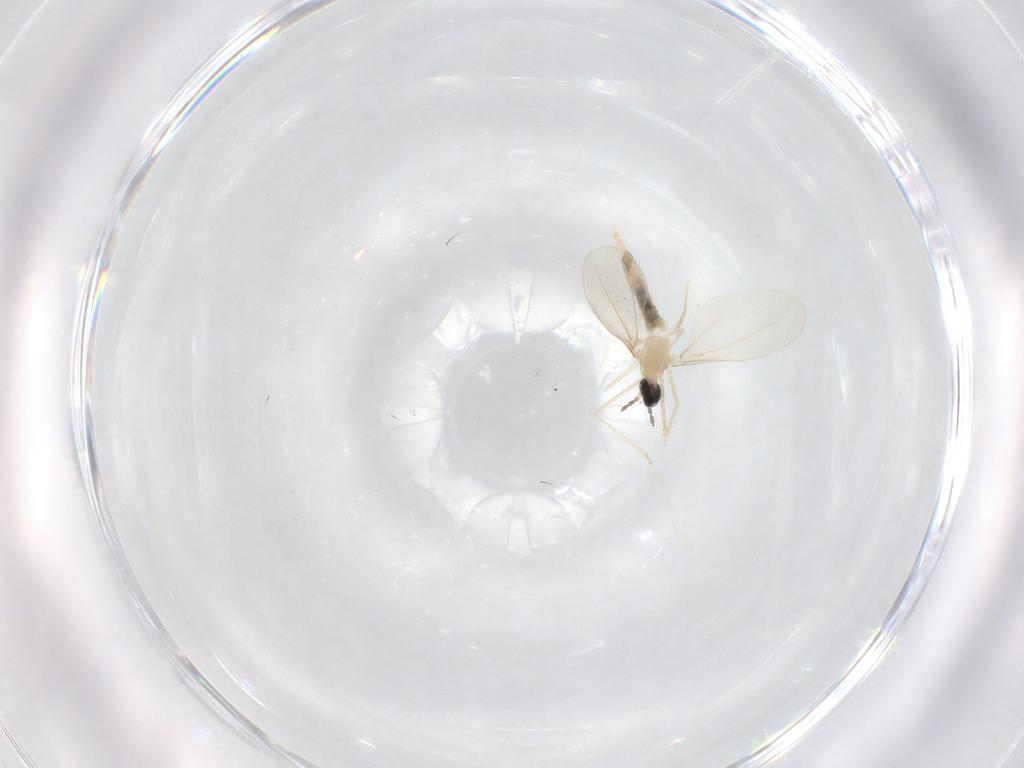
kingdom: Animalia
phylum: Arthropoda
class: Insecta
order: Diptera
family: Cecidomyiidae
